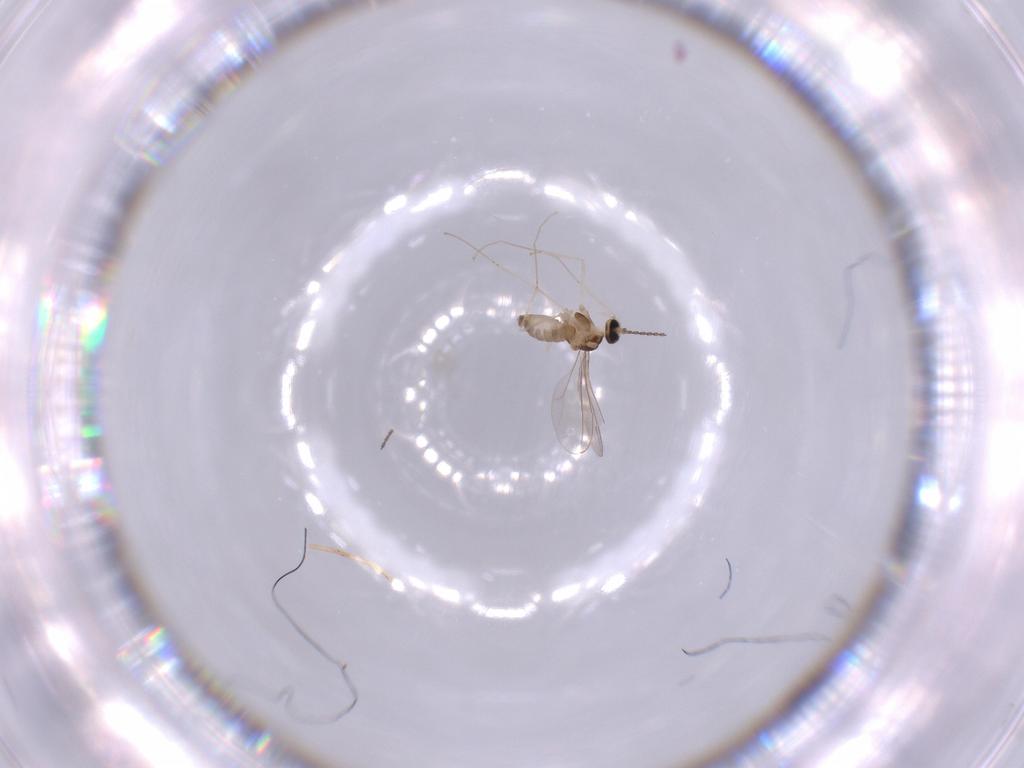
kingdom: Animalia
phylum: Arthropoda
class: Insecta
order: Diptera
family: Cecidomyiidae
